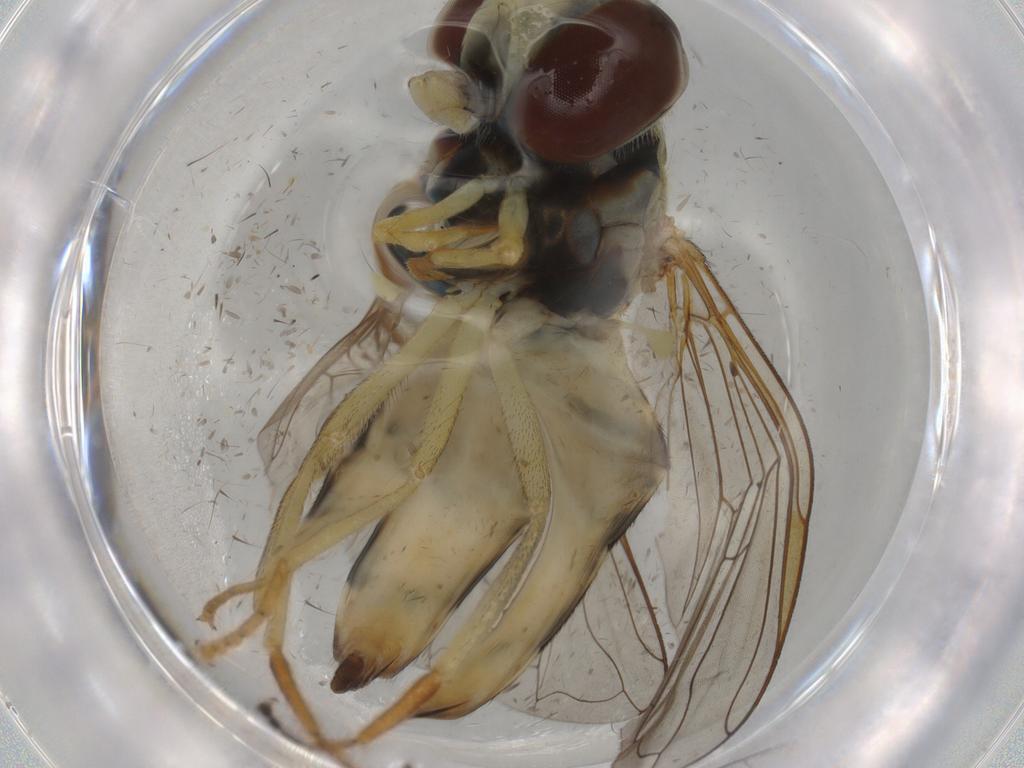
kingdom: Animalia
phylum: Arthropoda
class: Insecta
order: Diptera
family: Syrphidae
